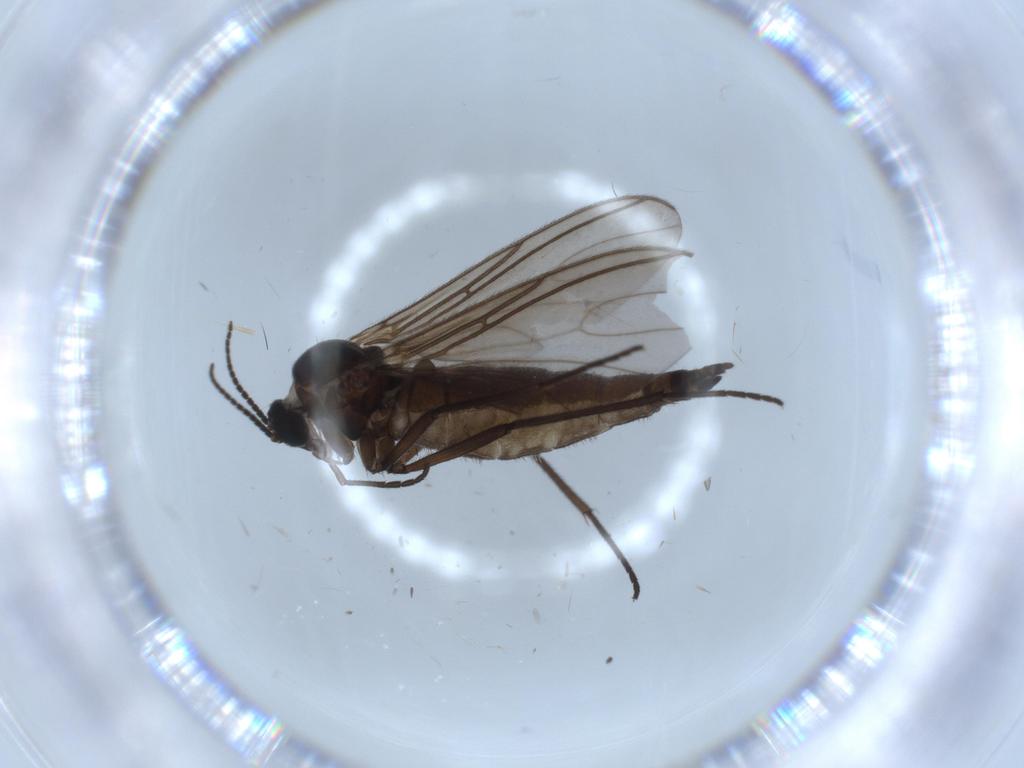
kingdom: Animalia
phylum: Arthropoda
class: Insecta
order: Diptera
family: Sciaridae
